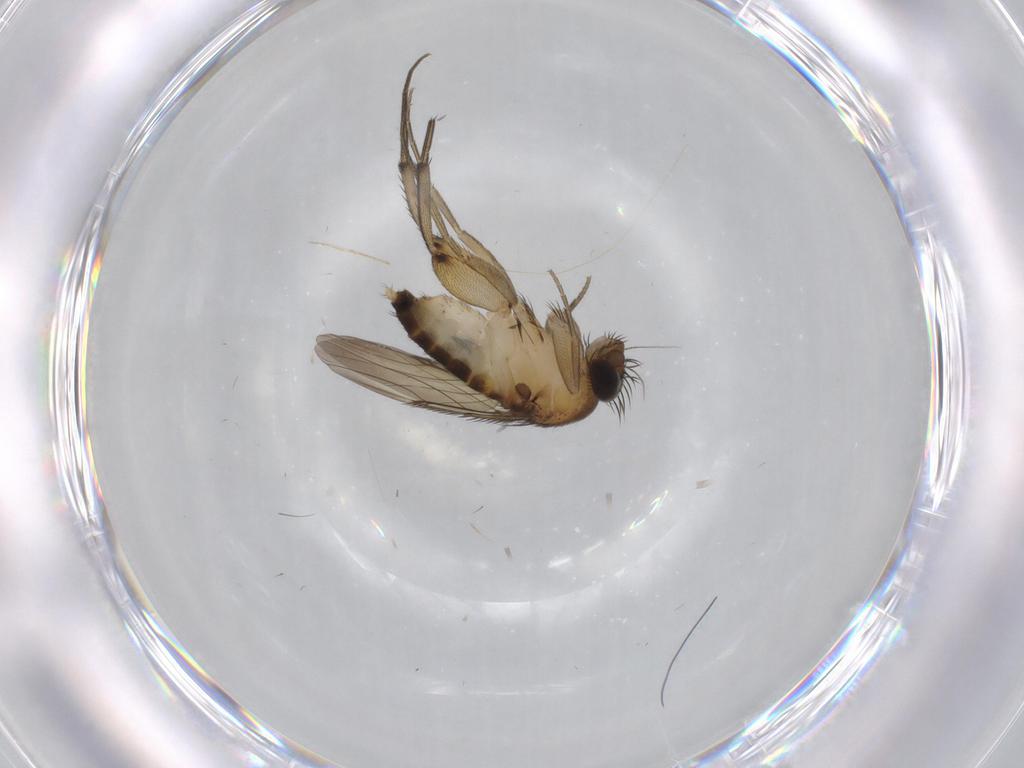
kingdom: Animalia
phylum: Arthropoda
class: Insecta
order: Diptera
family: Phoridae
